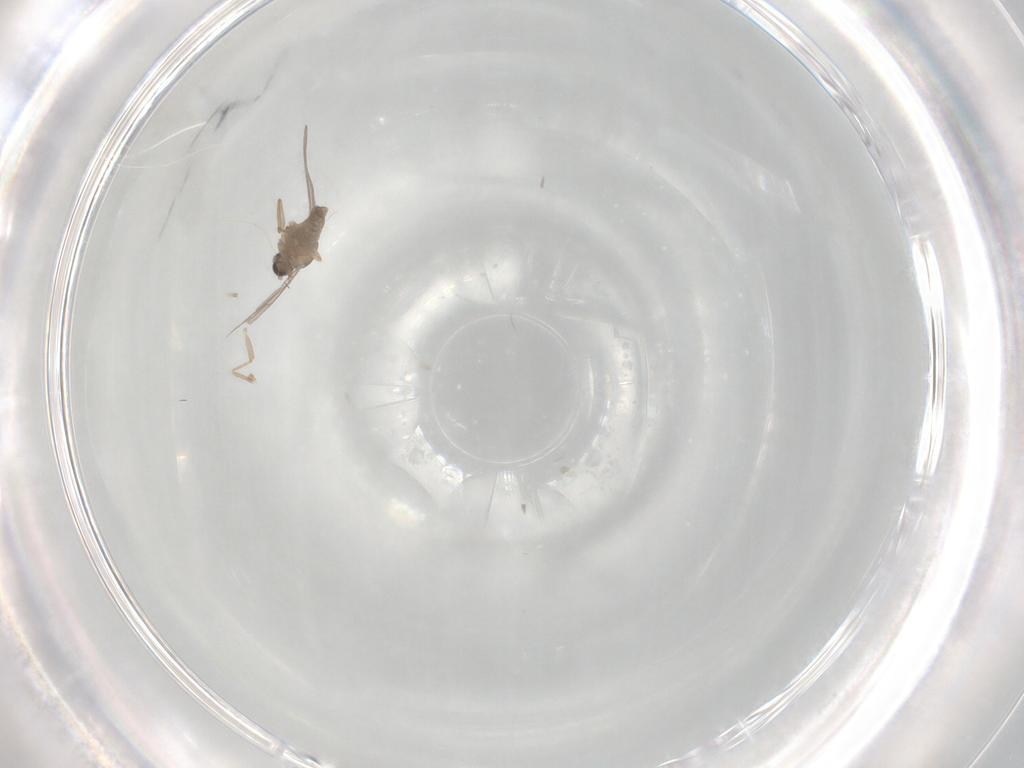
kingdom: Animalia
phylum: Arthropoda
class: Insecta
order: Diptera
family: Cecidomyiidae
